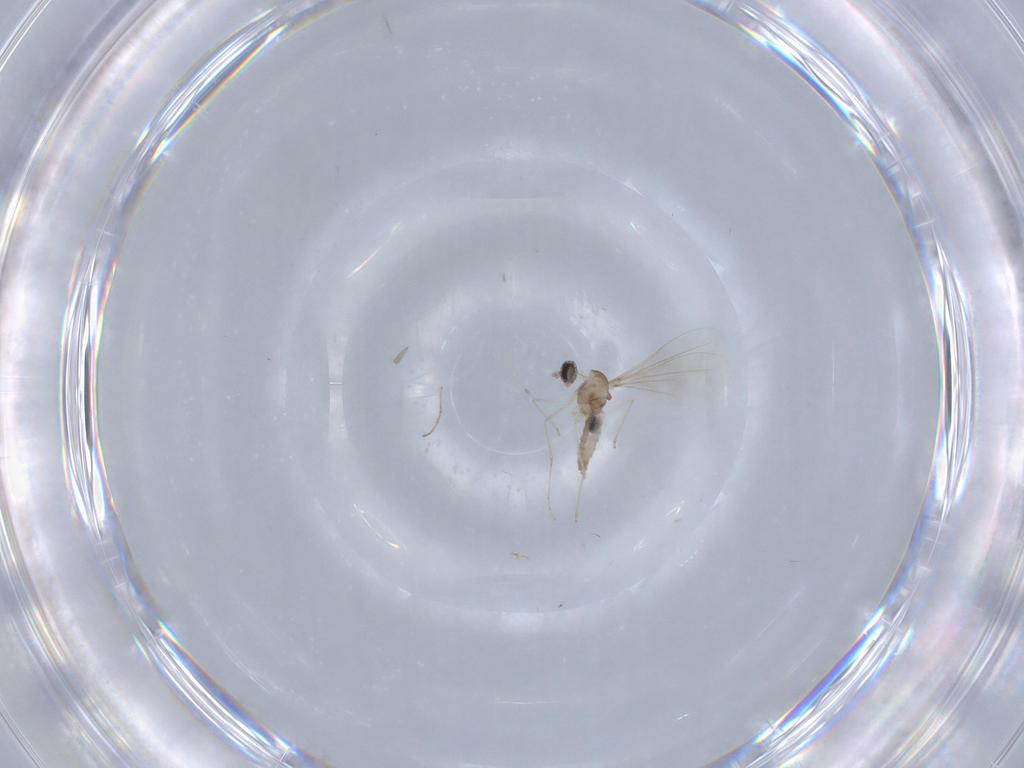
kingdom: Animalia
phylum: Arthropoda
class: Insecta
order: Diptera
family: Cecidomyiidae
